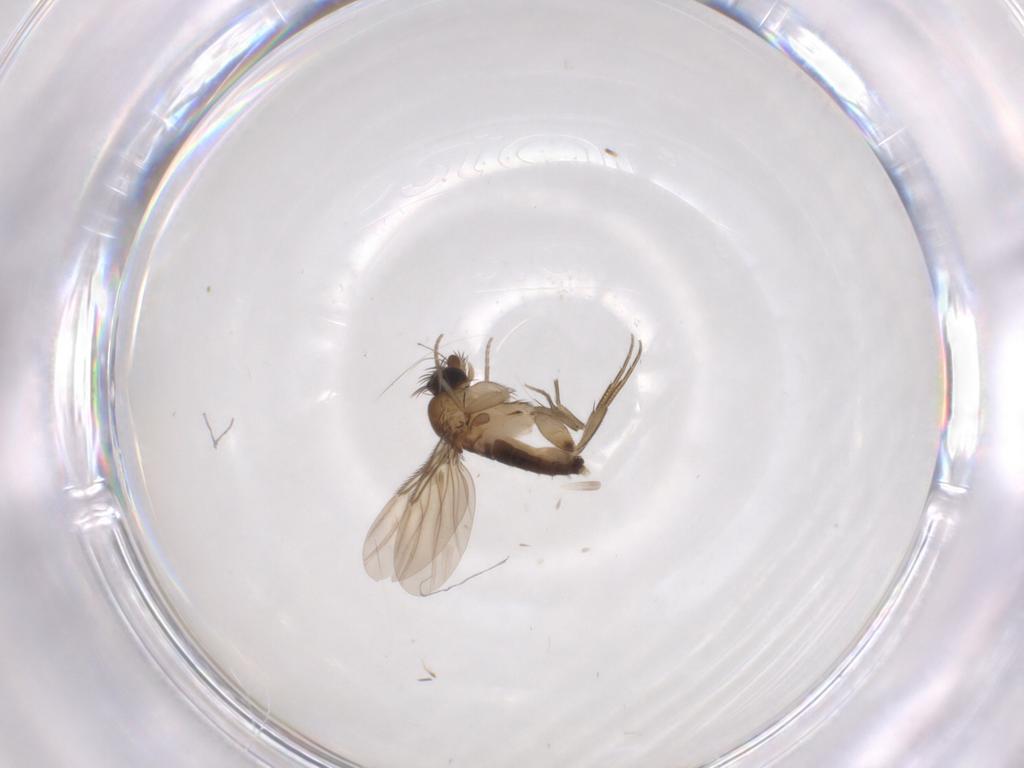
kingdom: Animalia
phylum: Arthropoda
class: Insecta
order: Diptera
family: Phoridae
